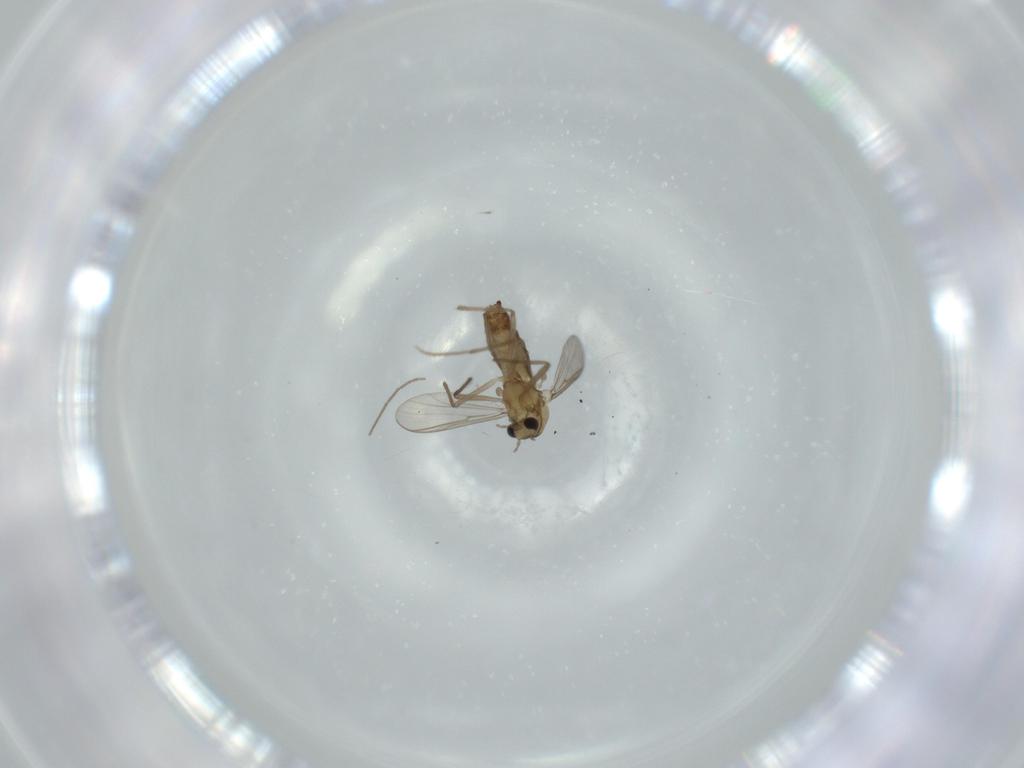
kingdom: Animalia
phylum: Arthropoda
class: Insecta
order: Diptera
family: Chironomidae
